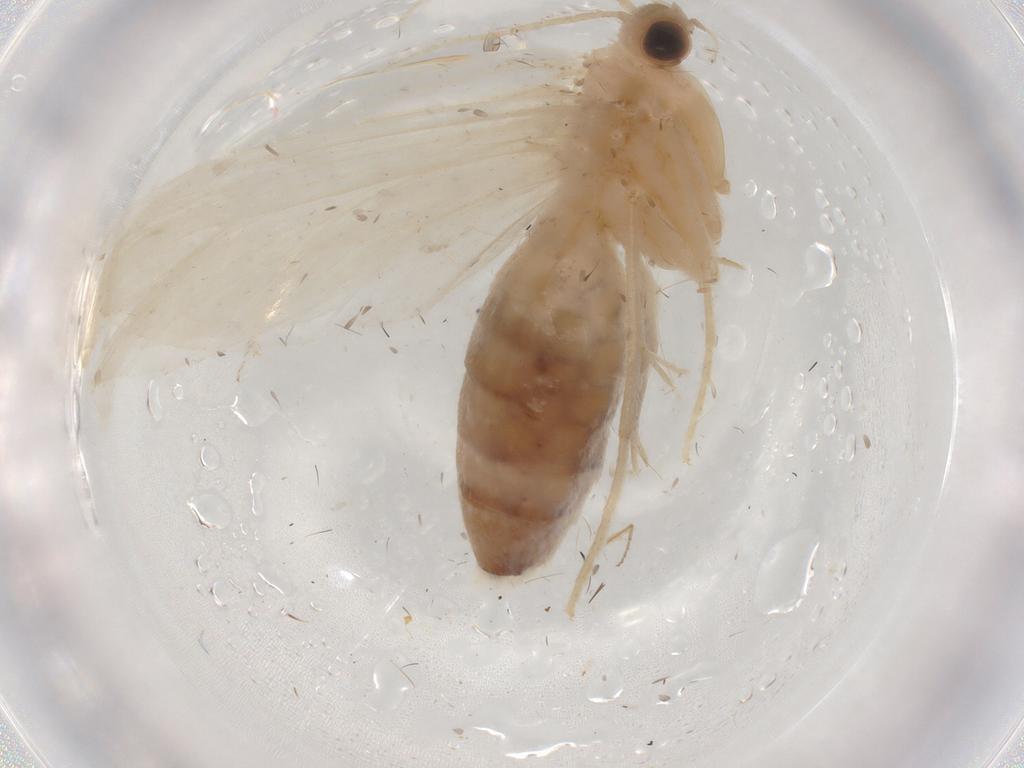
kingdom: Animalia
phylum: Arthropoda
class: Insecta
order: Lepidoptera
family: Crambidae
